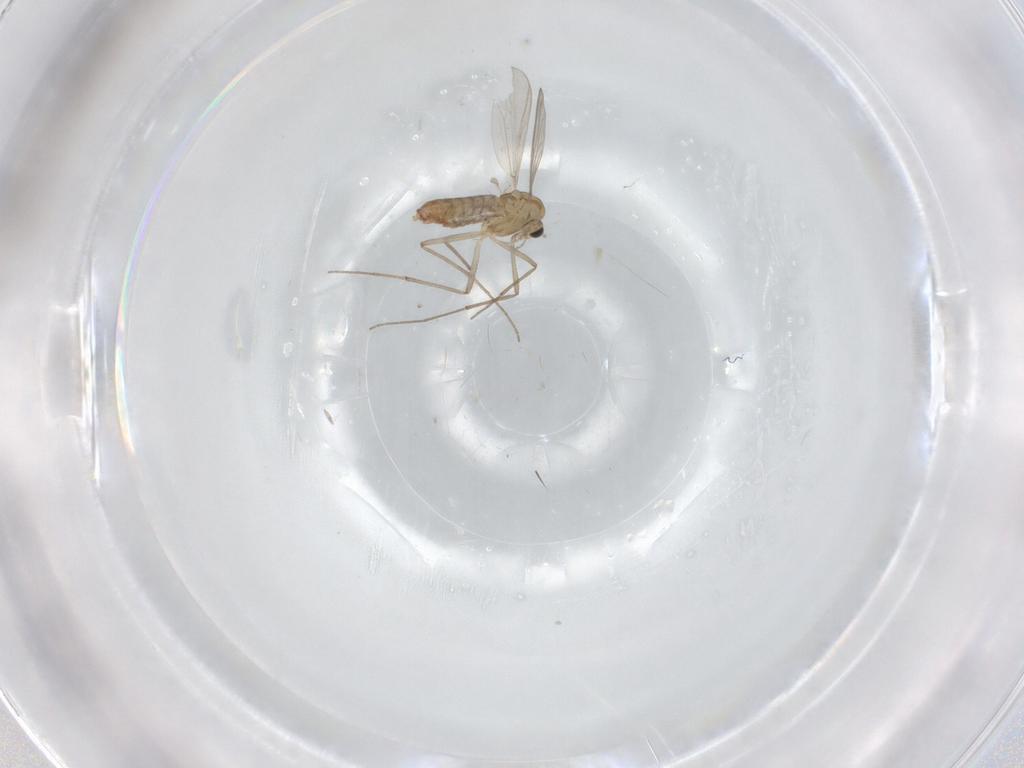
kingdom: Animalia
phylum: Arthropoda
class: Insecta
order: Diptera
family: Chironomidae
